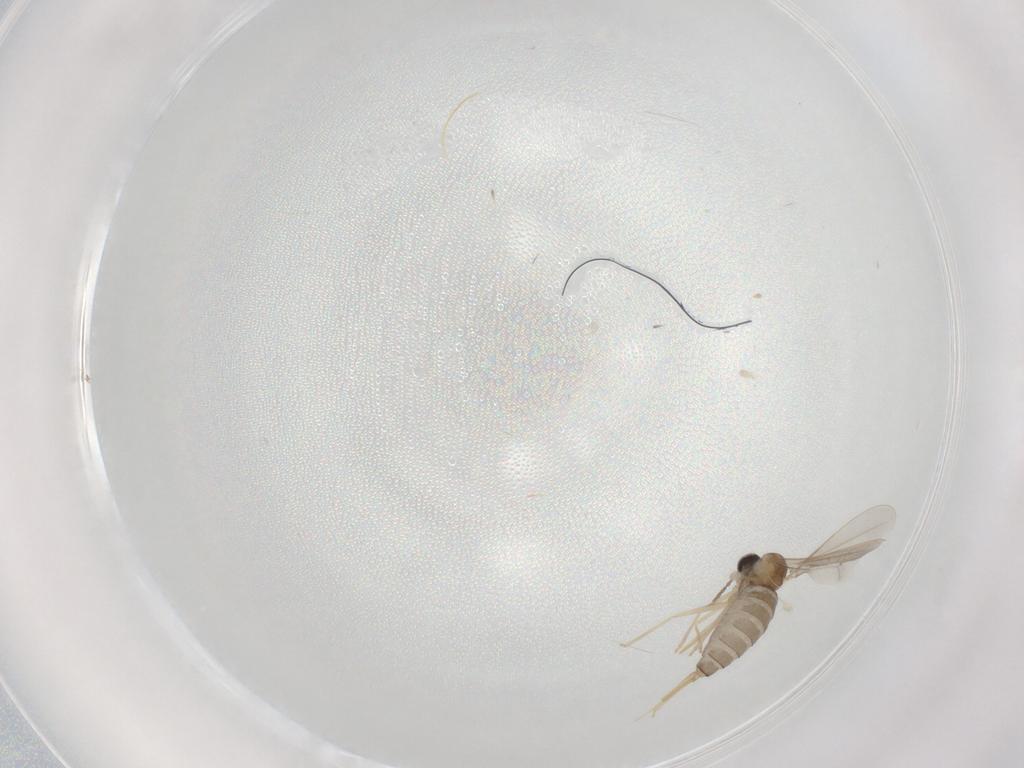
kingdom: Animalia
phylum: Arthropoda
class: Insecta
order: Diptera
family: Cecidomyiidae
